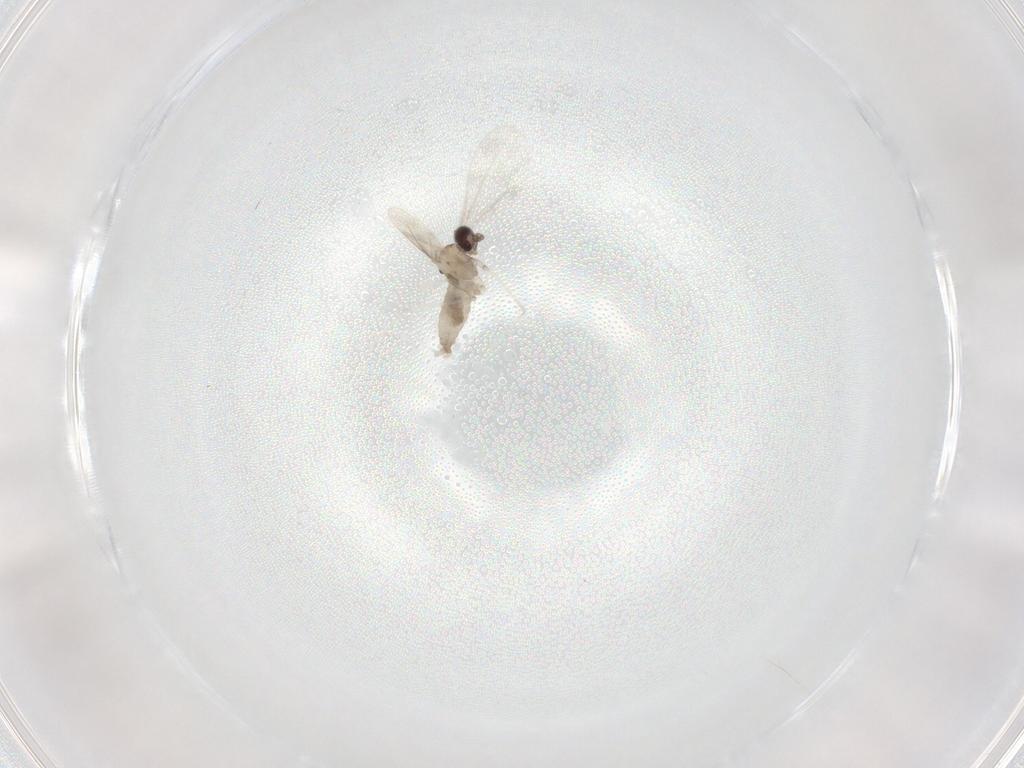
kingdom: Animalia
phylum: Arthropoda
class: Insecta
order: Diptera
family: Cecidomyiidae
